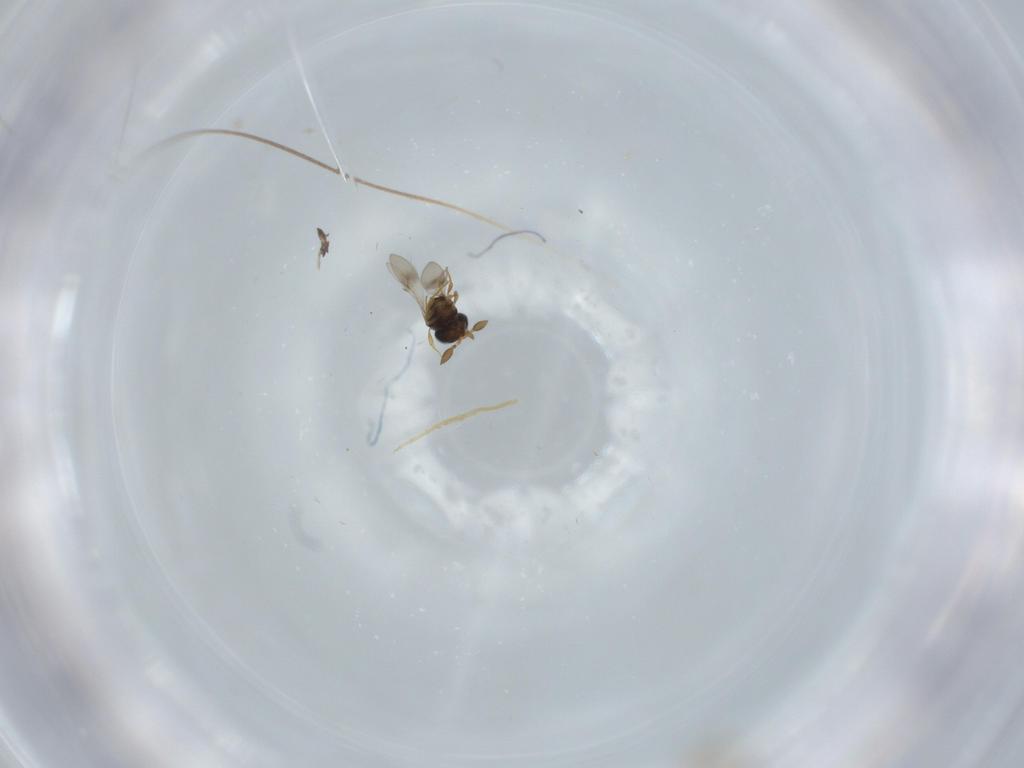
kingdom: Animalia
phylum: Arthropoda
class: Insecta
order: Hymenoptera
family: Scelionidae
